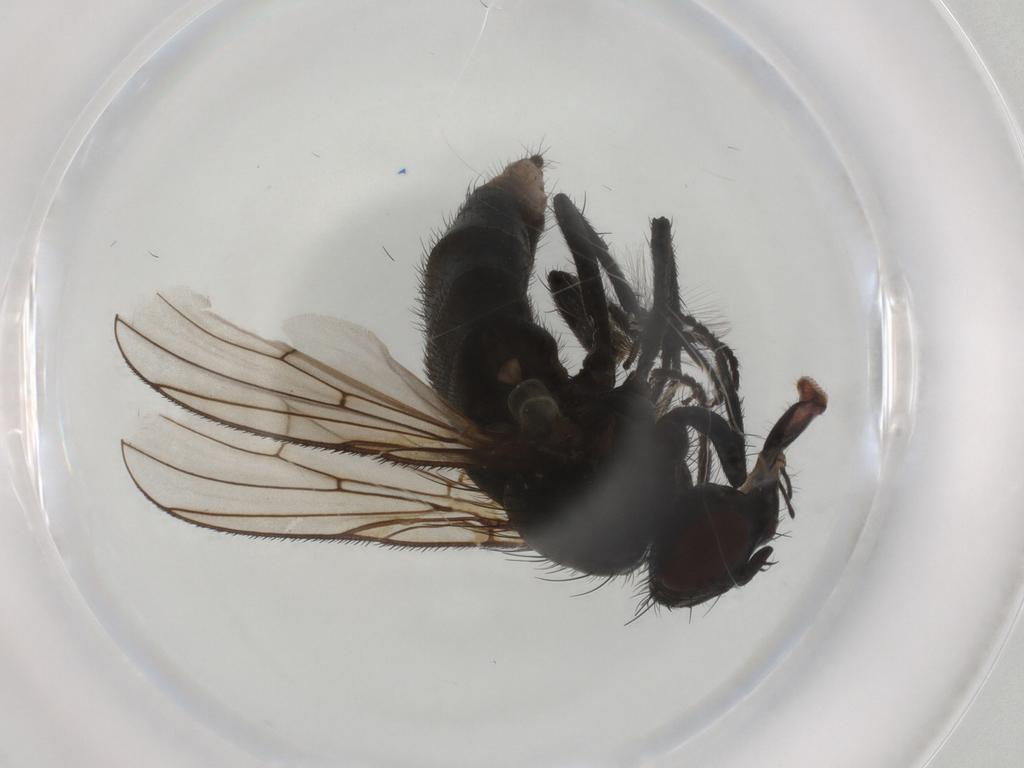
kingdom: Animalia
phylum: Arthropoda
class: Insecta
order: Diptera
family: Muscidae
